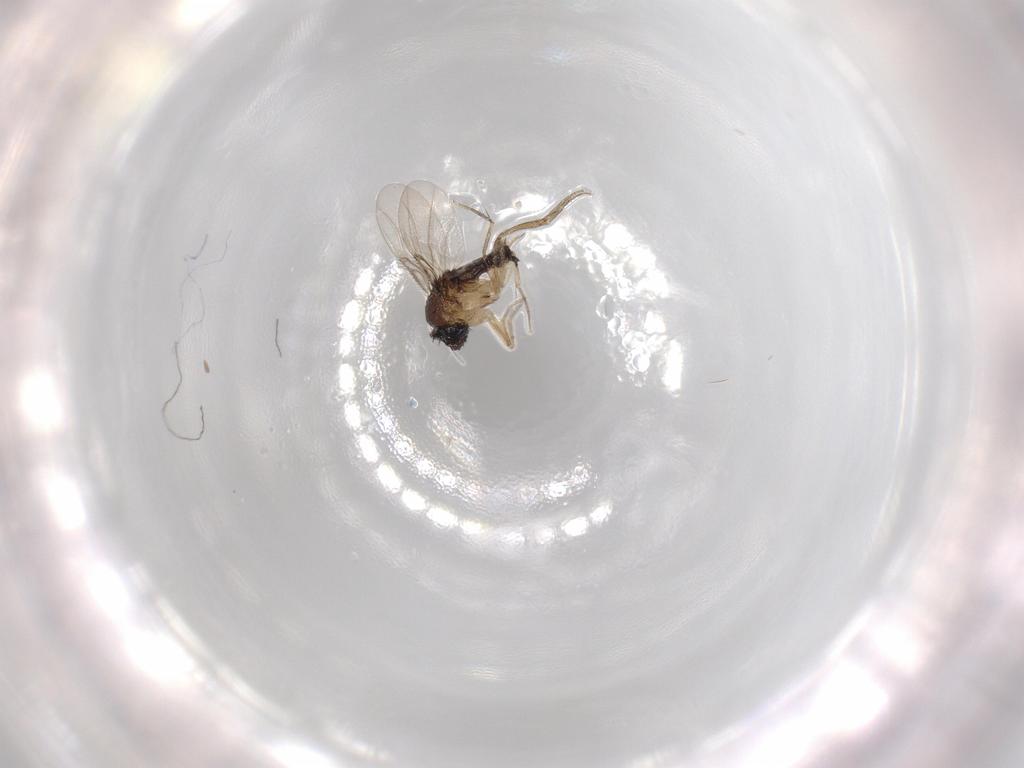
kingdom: Animalia
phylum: Arthropoda
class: Insecta
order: Diptera
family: Phoridae
